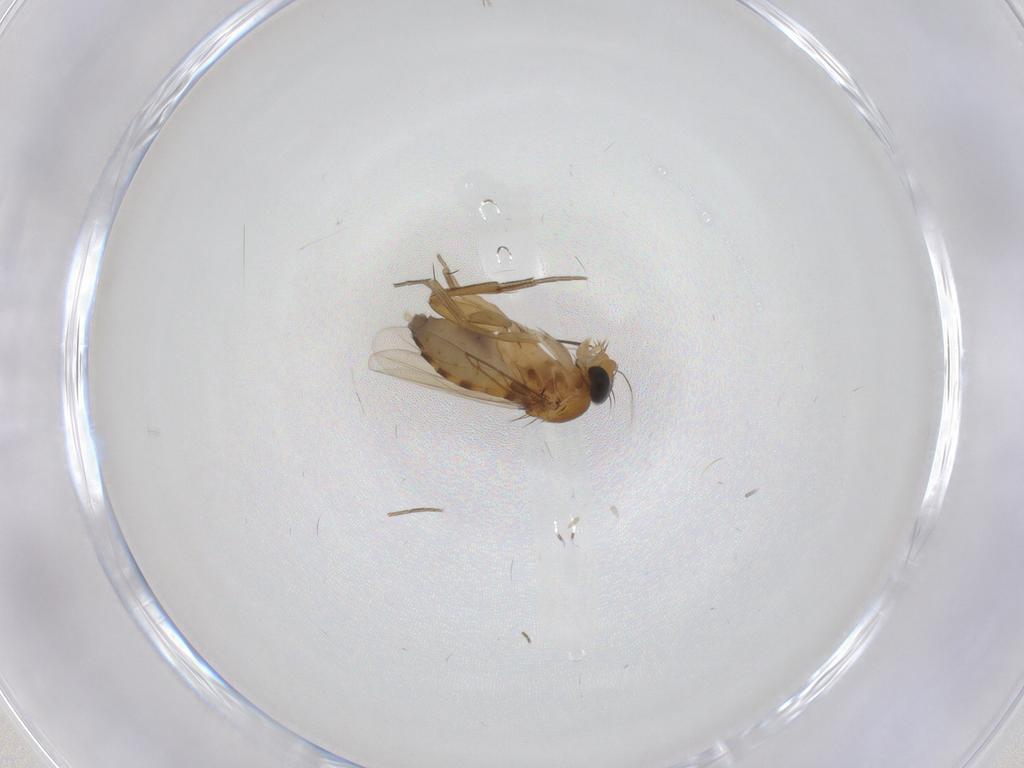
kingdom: Animalia
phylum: Arthropoda
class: Insecta
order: Diptera
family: Phoridae
